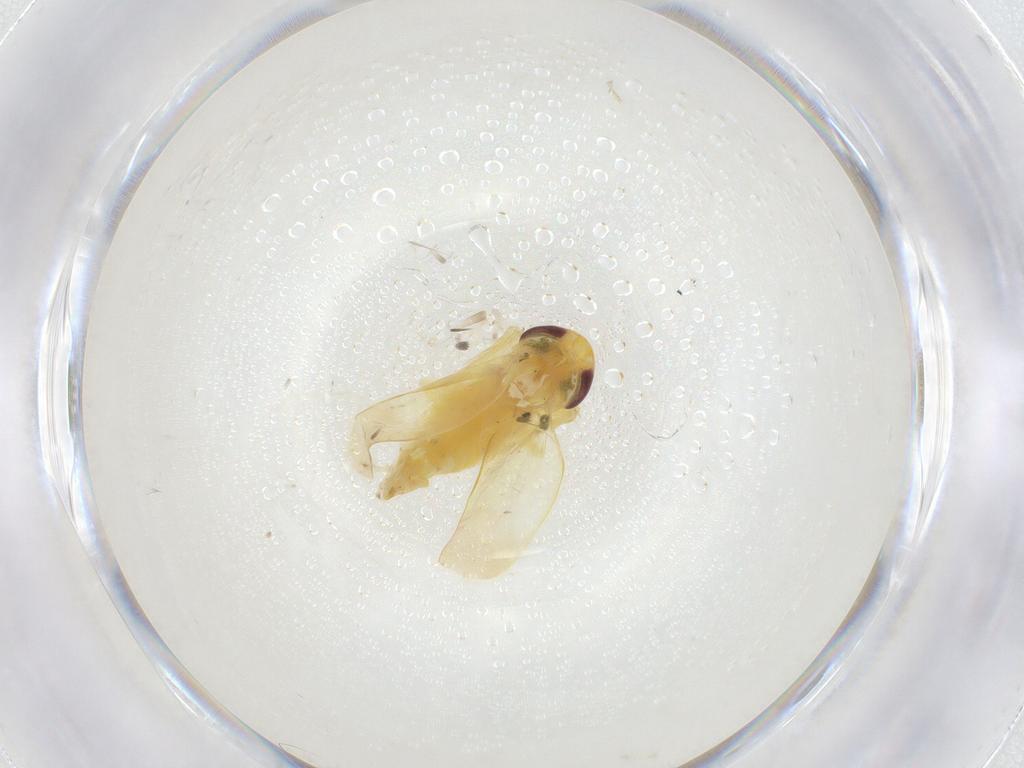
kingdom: Animalia
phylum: Arthropoda
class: Insecta
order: Hemiptera
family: Cicadellidae
